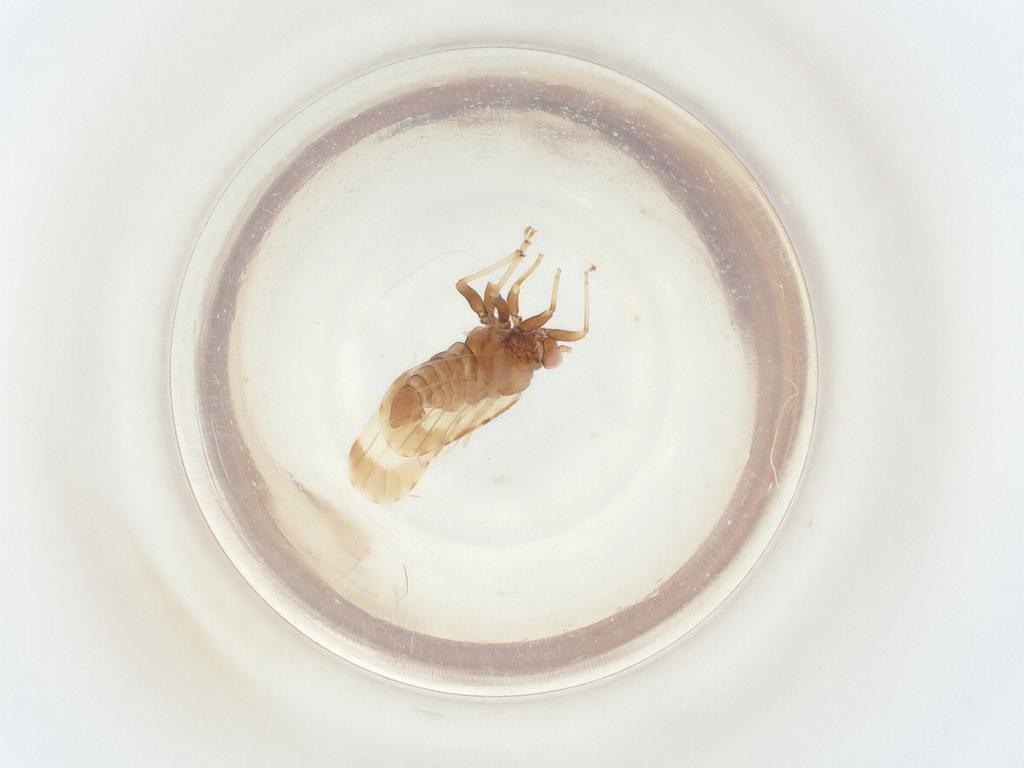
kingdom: Animalia
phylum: Arthropoda
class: Insecta
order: Hemiptera
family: Psyllidae
